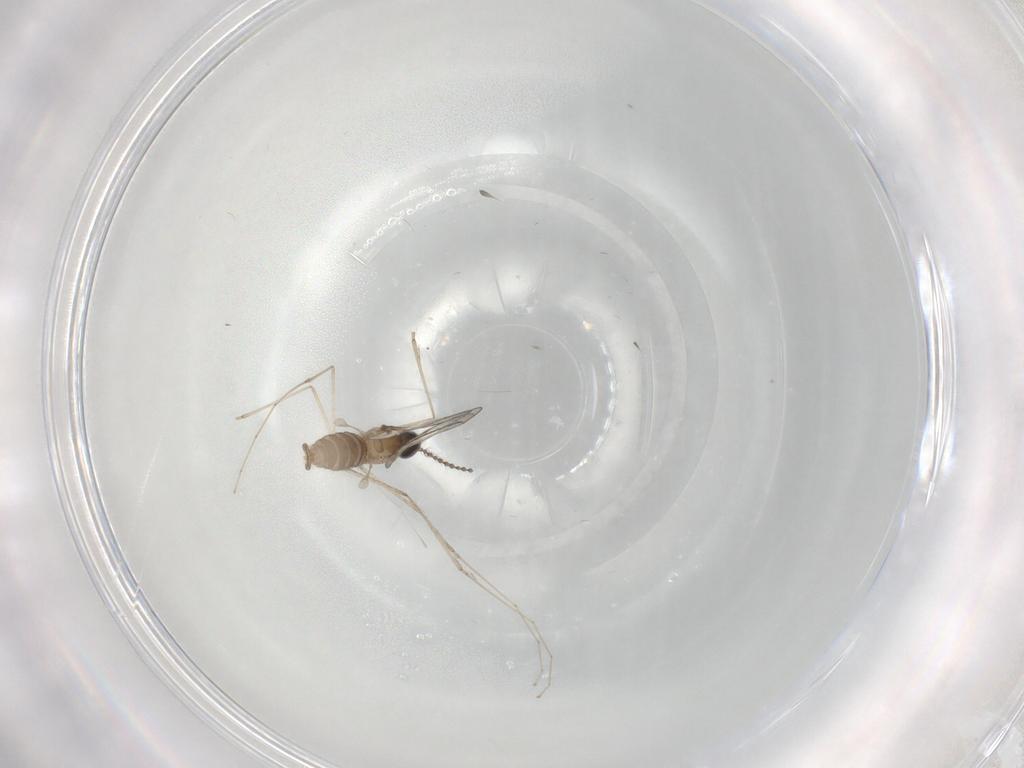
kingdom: Animalia
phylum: Arthropoda
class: Insecta
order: Diptera
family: Cecidomyiidae
